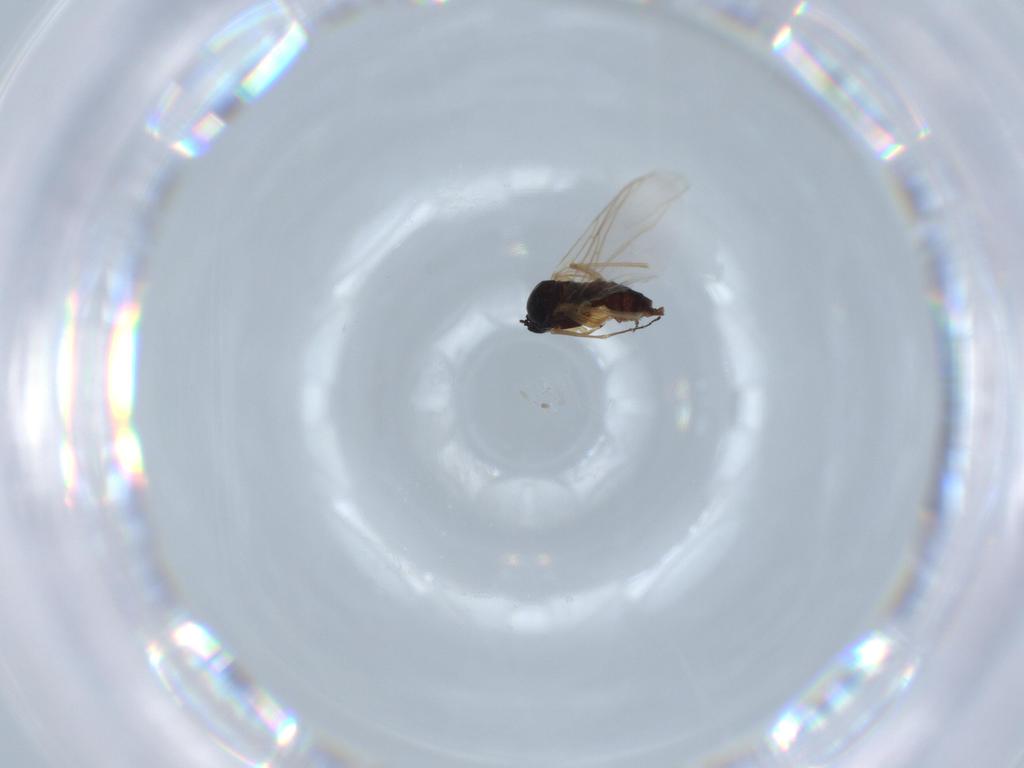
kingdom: Animalia
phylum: Arthropoda
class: Insecta
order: Diptera
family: Sciaridae
